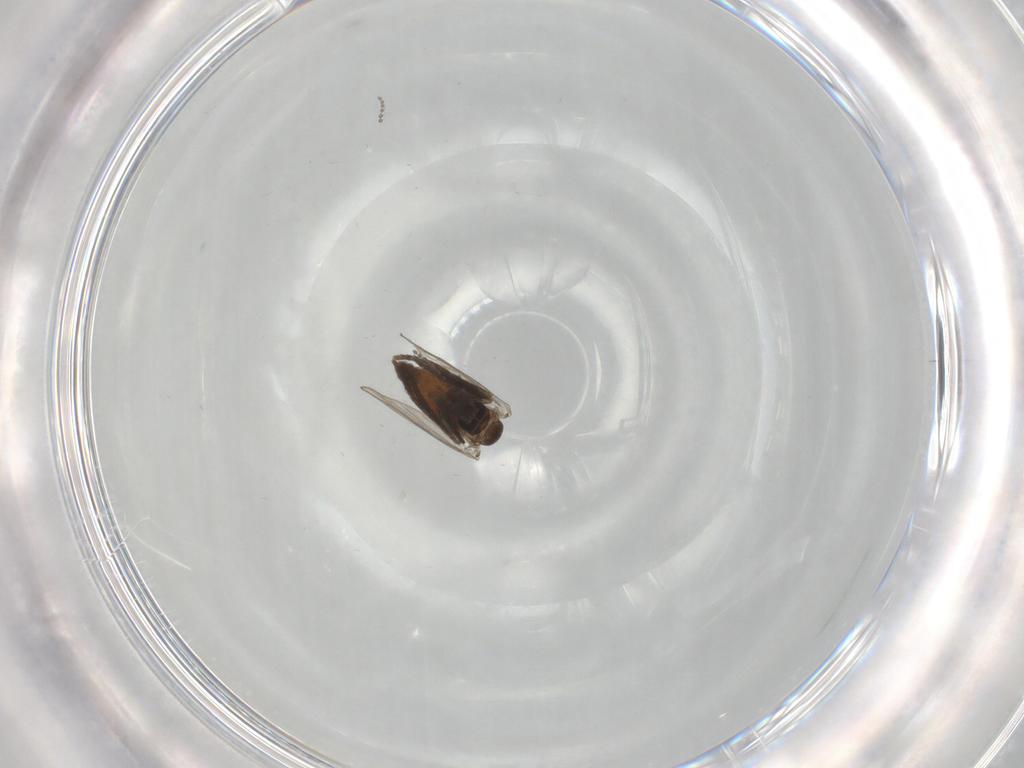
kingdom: Animalia
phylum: Arthropoda
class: Insecta
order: Diptera
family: Psychodidae
